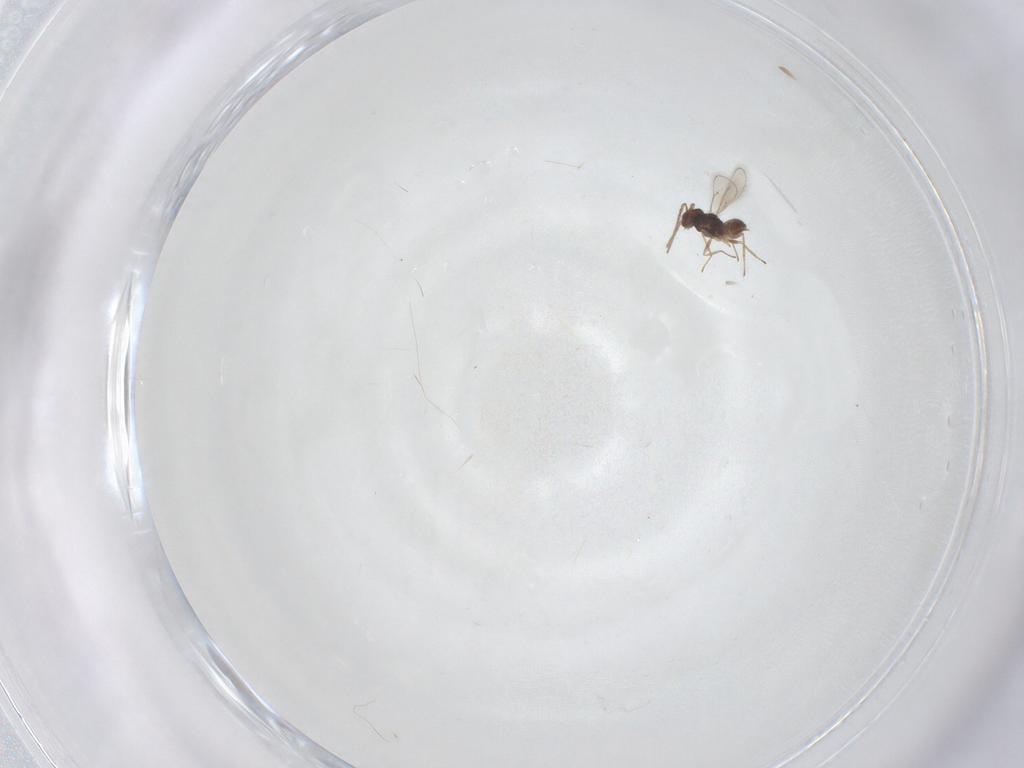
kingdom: Animalia
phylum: Arthropoda
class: Insecta
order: Hymenoptera
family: Eulophidae
